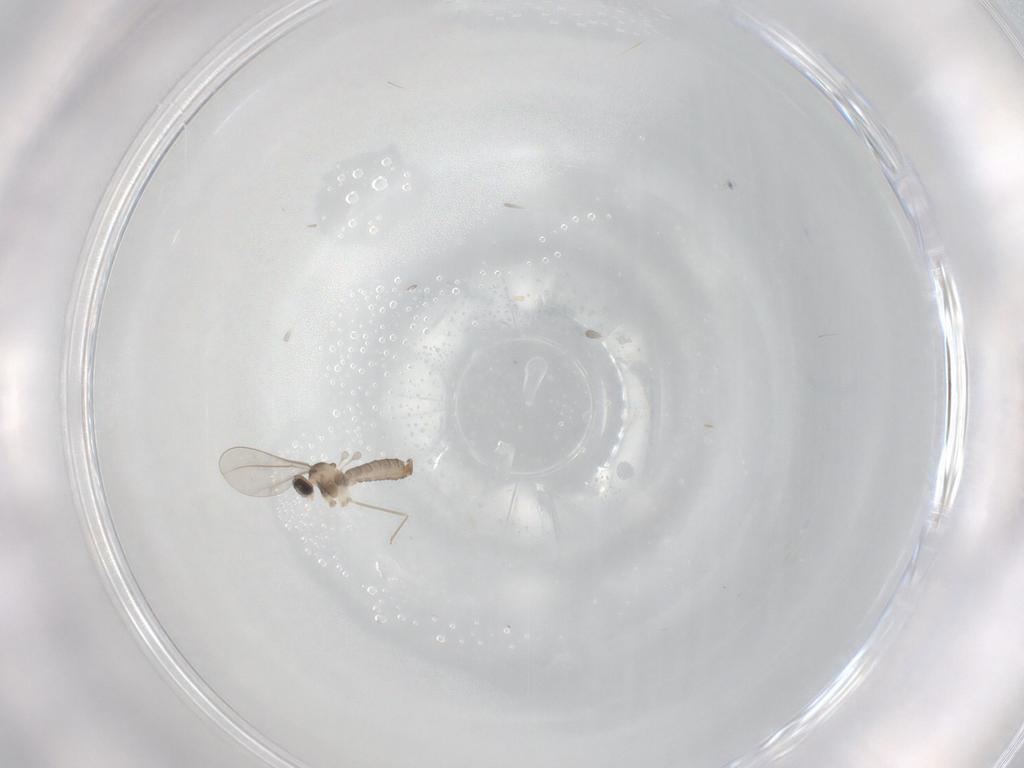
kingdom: Animalia
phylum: Arthropoda
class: Insecta
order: Diptera
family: Cecidomyiidae
